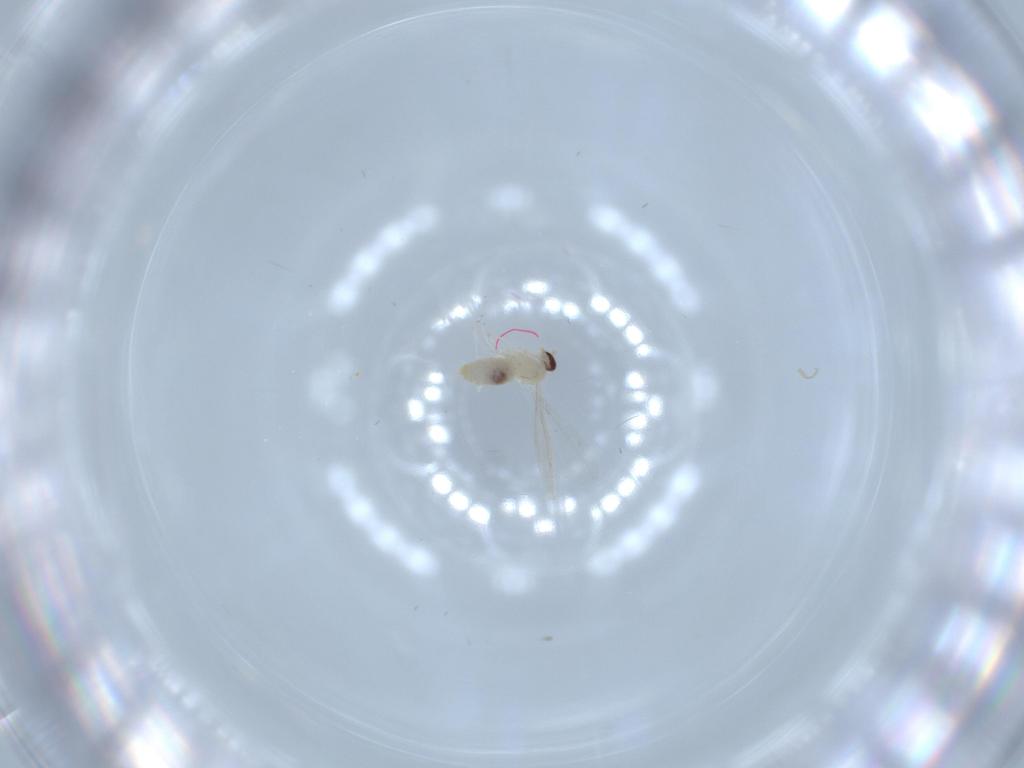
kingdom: Animalia
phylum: Arthropoda
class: Insecta
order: Diptera
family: Cecidomyiidae
